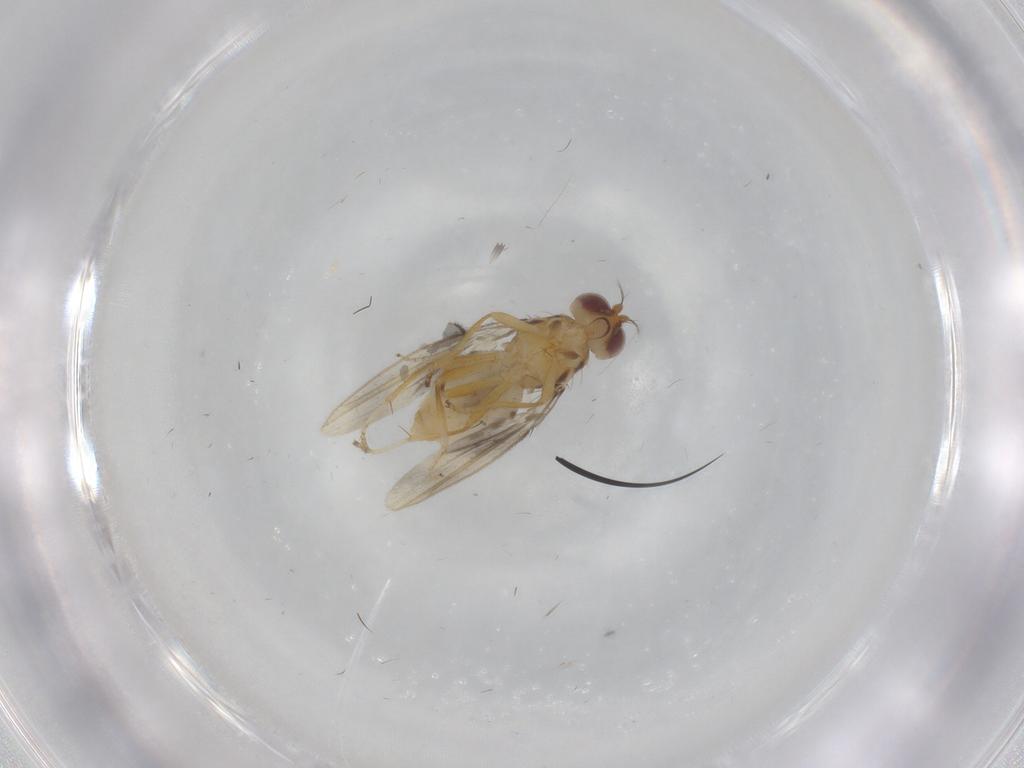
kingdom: Animalia
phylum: Arthropoda
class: Insecta
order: Diptera
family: Periscelididae
